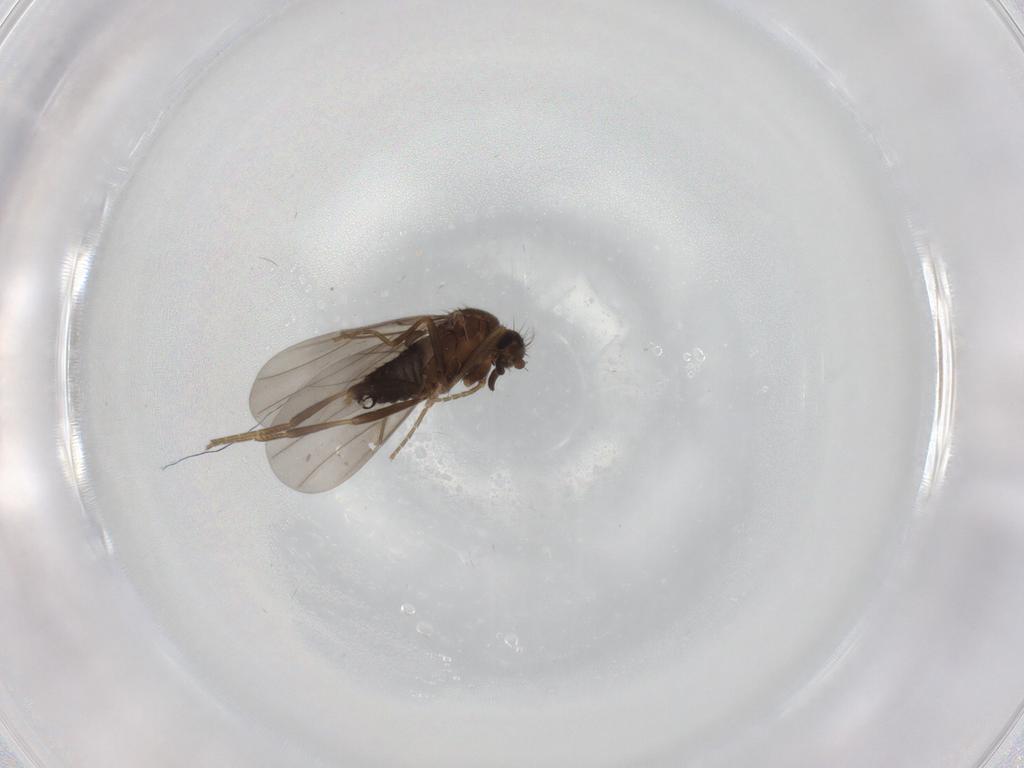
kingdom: Animalia
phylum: Arthropoda
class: Insecta
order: Diptera
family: Phoridae
